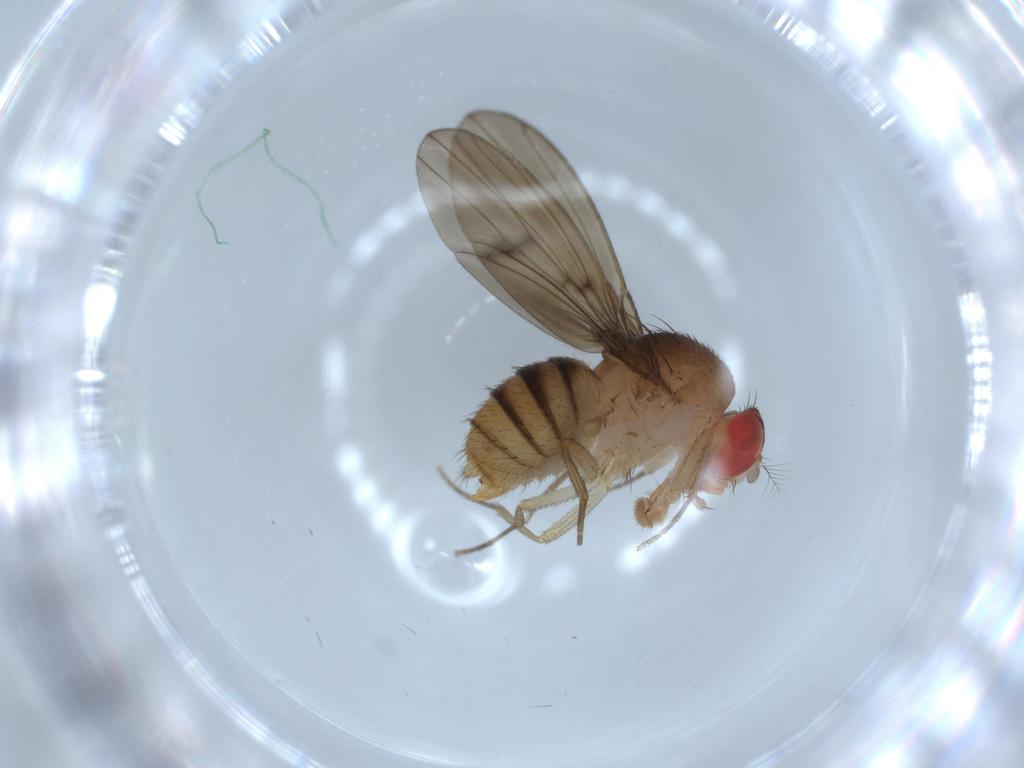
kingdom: Animalia
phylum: Arthropoda
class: Insecta
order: Diptera
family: Drosophilidae
